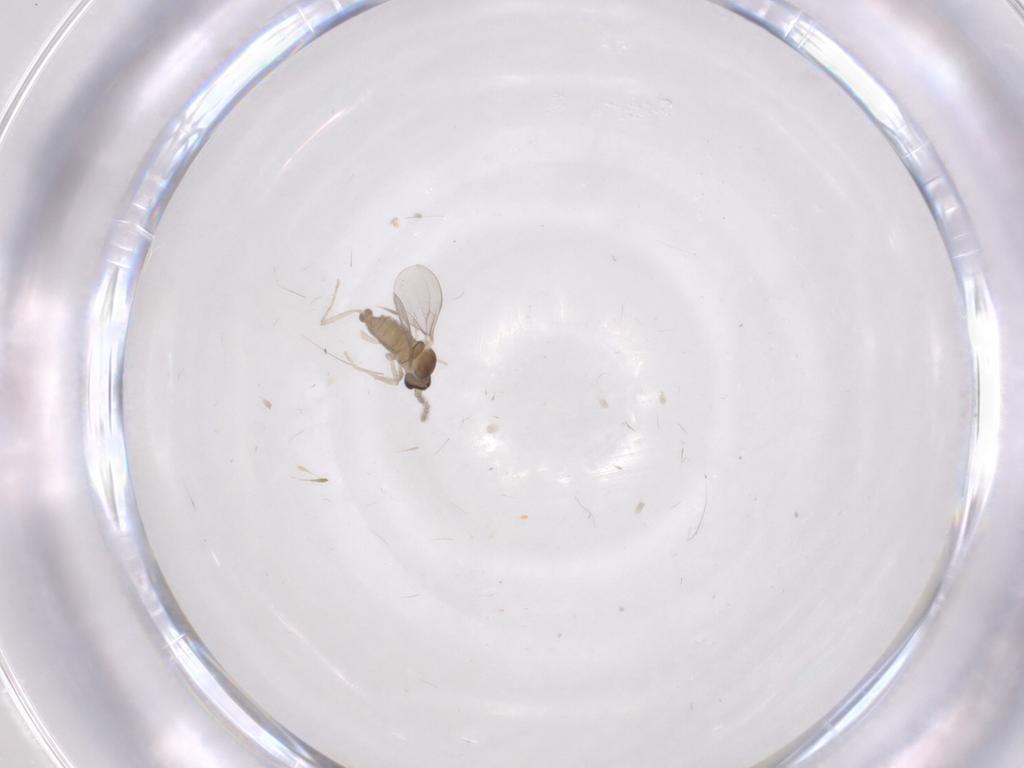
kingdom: Animalia
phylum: Arthropoda
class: Insecta
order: Diptera
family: Cecidomyiidae
